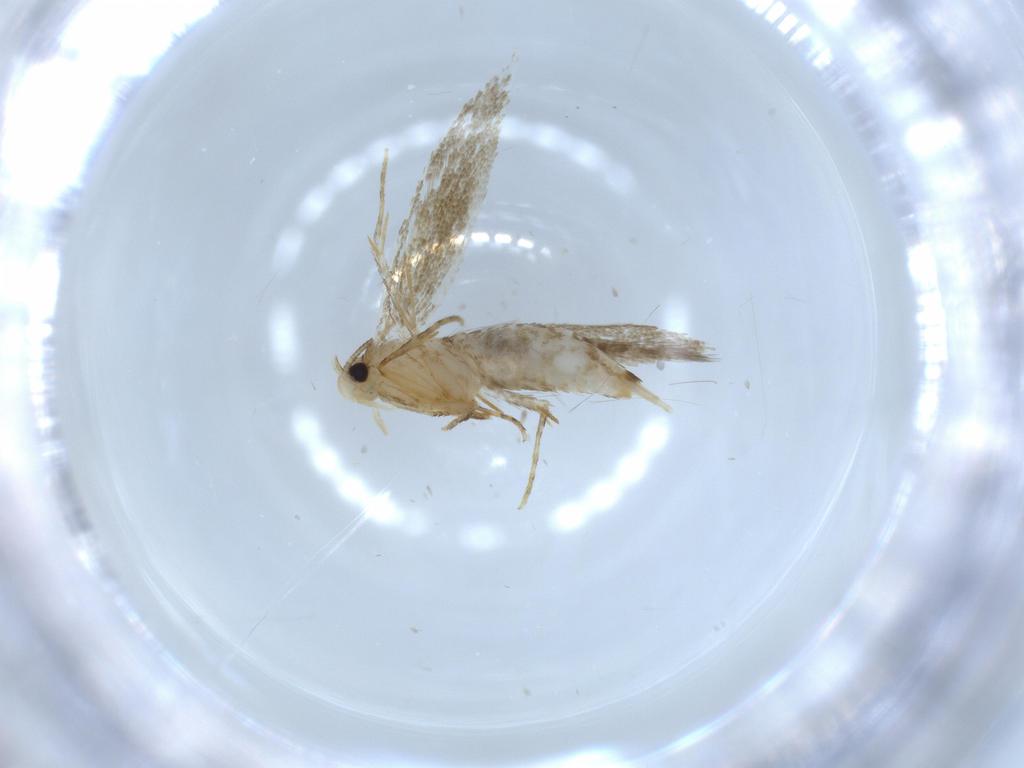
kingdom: Animalia
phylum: Arthropoda
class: Insecta
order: Lepidoptera
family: Tineidae
